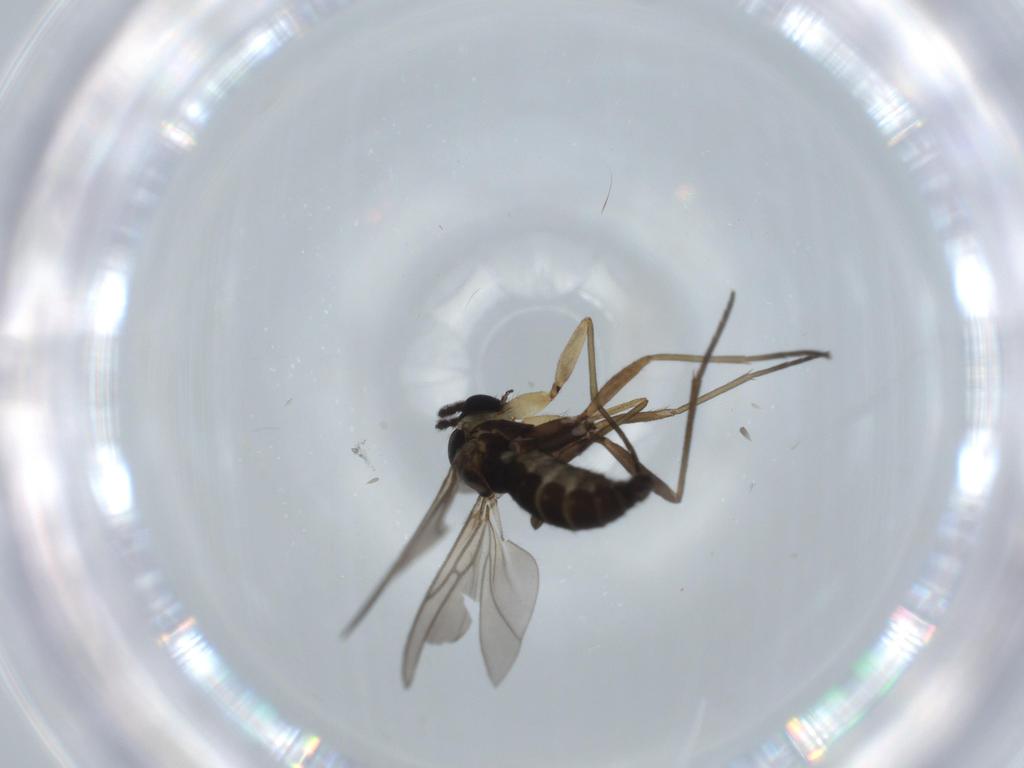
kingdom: Animalia
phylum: Arthropoda
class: Insecta
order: Diptera
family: Sciaridae
